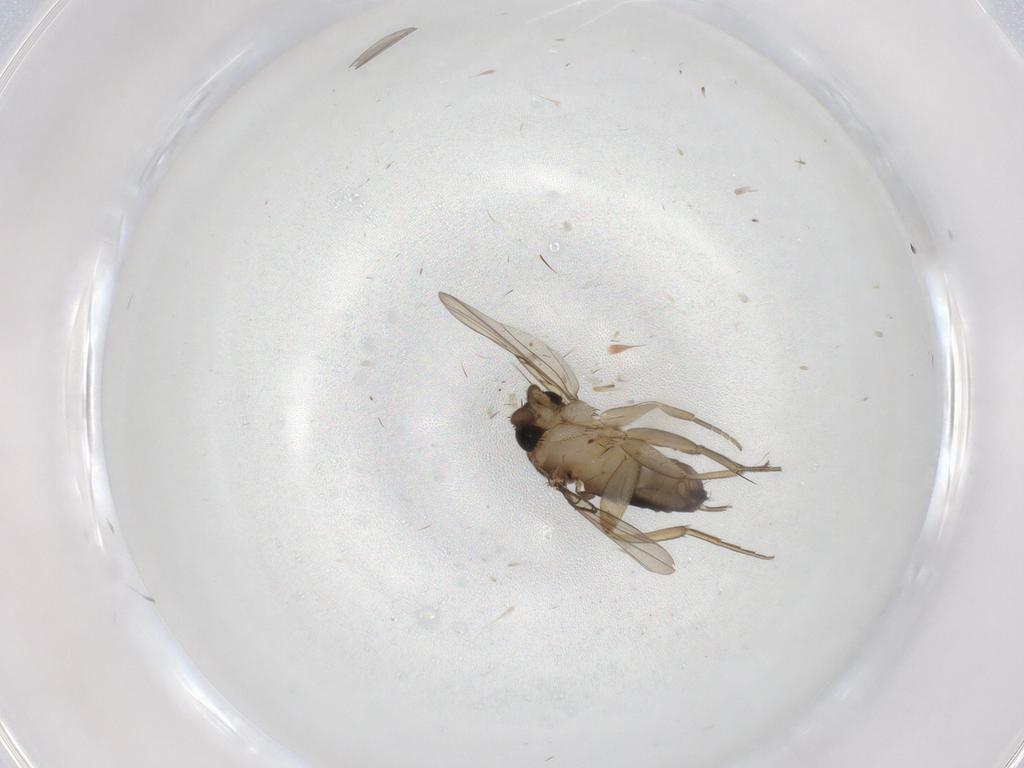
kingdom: Animalia
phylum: Arthropoda
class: Insecta
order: Diptera
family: Phoridae
